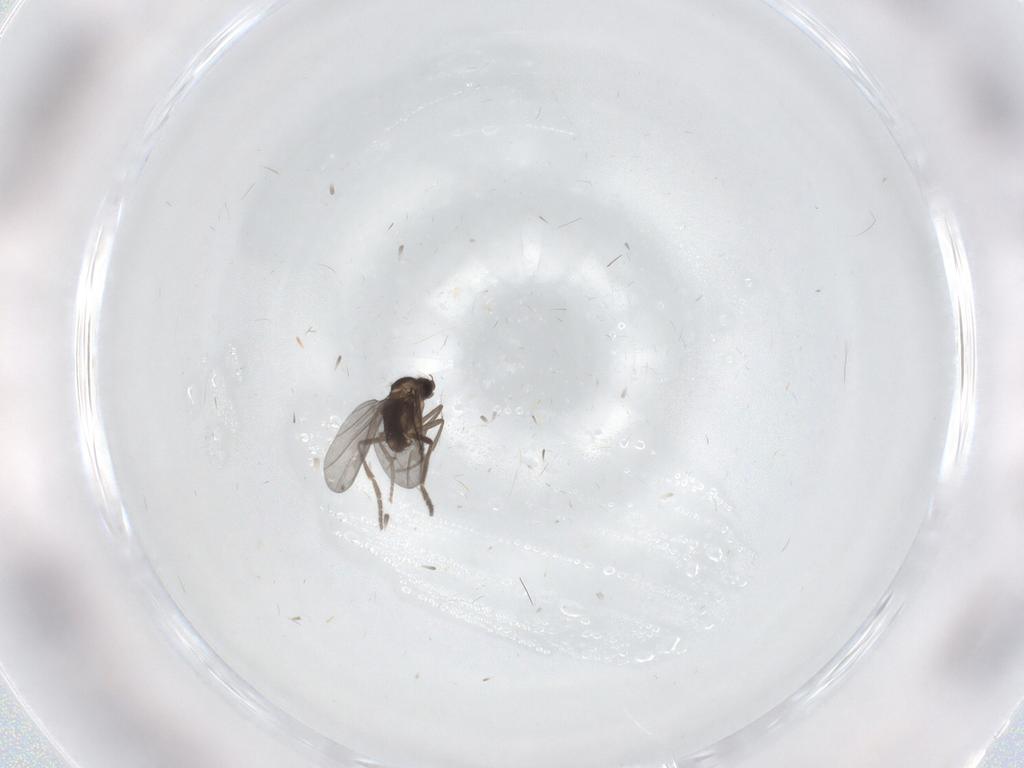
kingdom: Animalia
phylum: Arthropoda
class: Insecta
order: Diptera
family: Phoridae
